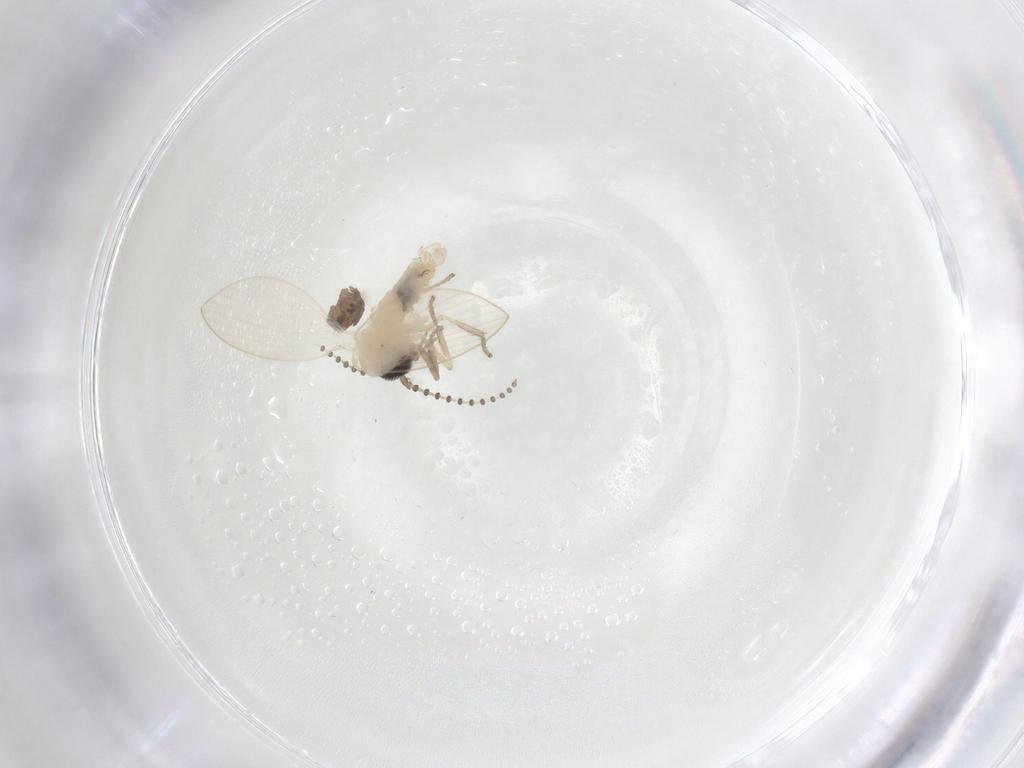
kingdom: Animalia
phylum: Arthropoda
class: Insecta
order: Diptera
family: Psychodidae
